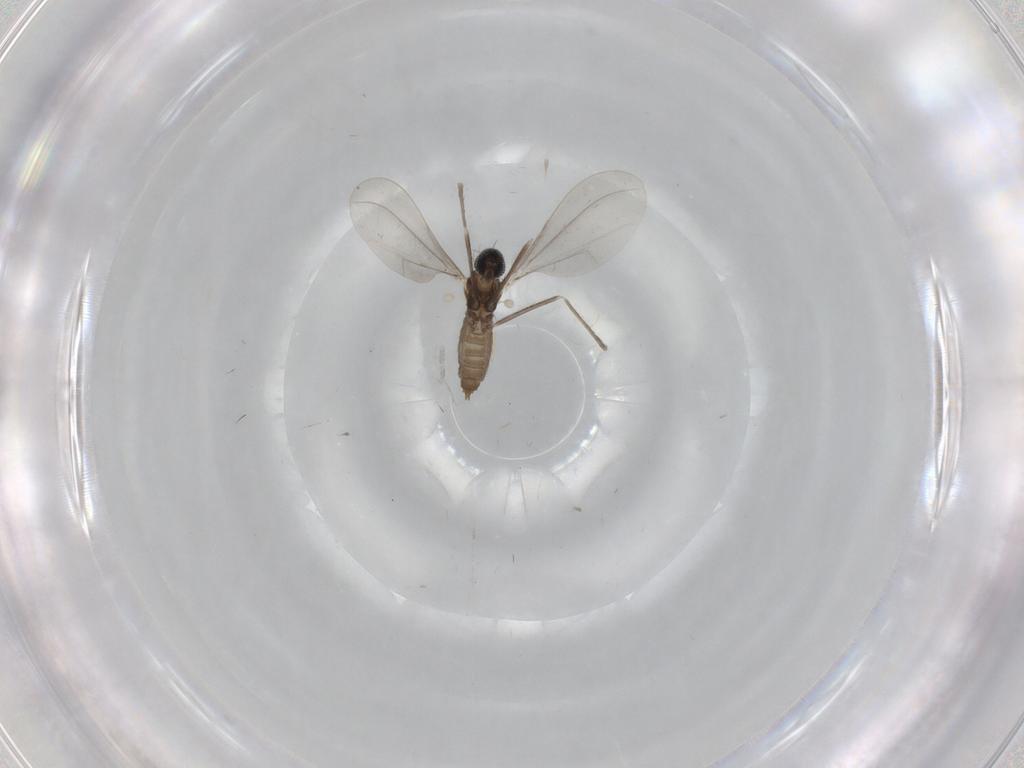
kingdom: Animalia
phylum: Arthropoda
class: Insecta
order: Diptera
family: Cecidomyiidae
